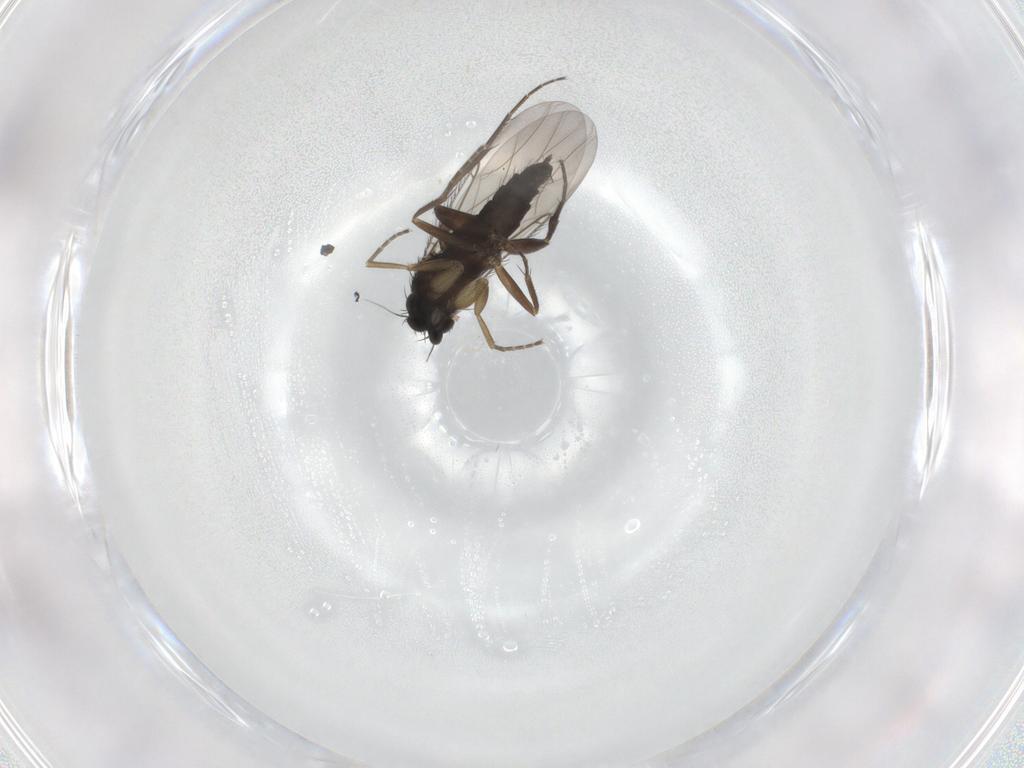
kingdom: Animalia
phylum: Arthropoda
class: Insecta
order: Diptera
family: Phoridae
